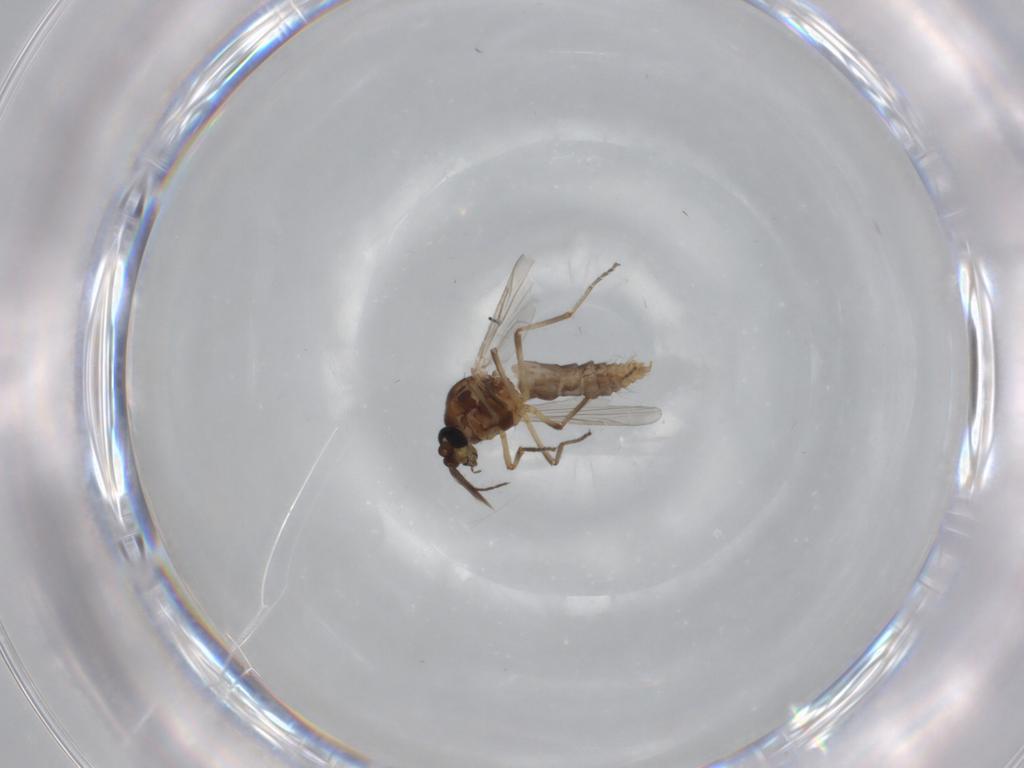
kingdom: Animalia
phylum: Arthropoda
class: Insecta
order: Diptera
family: Ceratopogonidae
